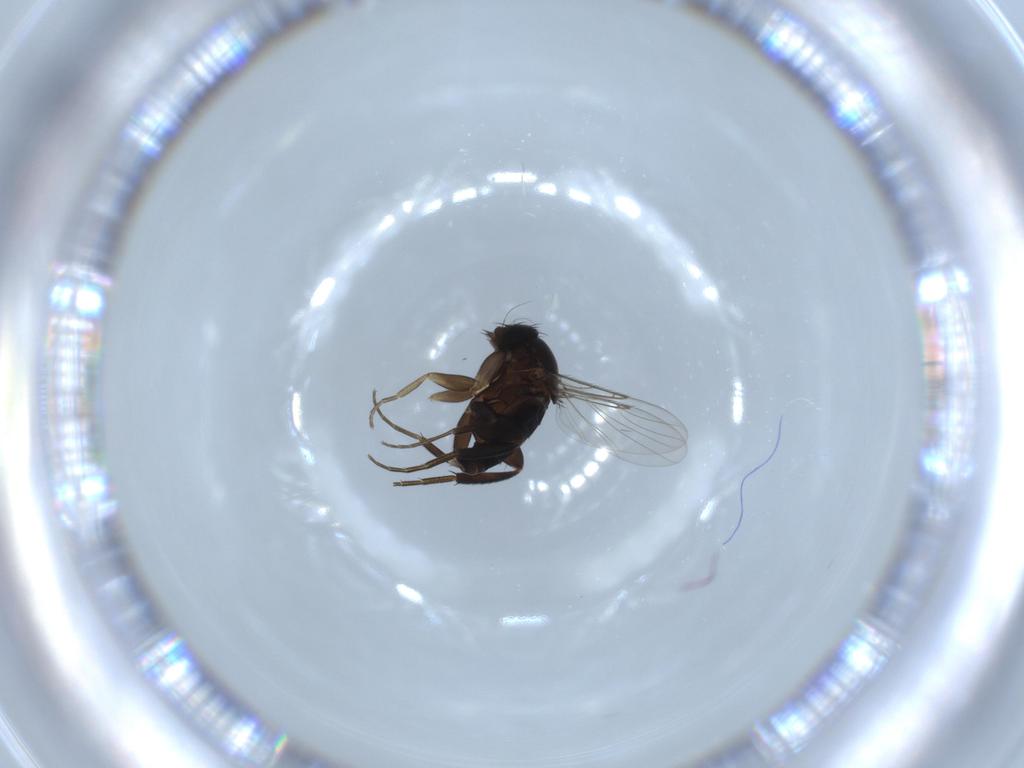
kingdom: Animalia
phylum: Arthropoda
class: Insecta
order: Diptera
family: Phoridae
